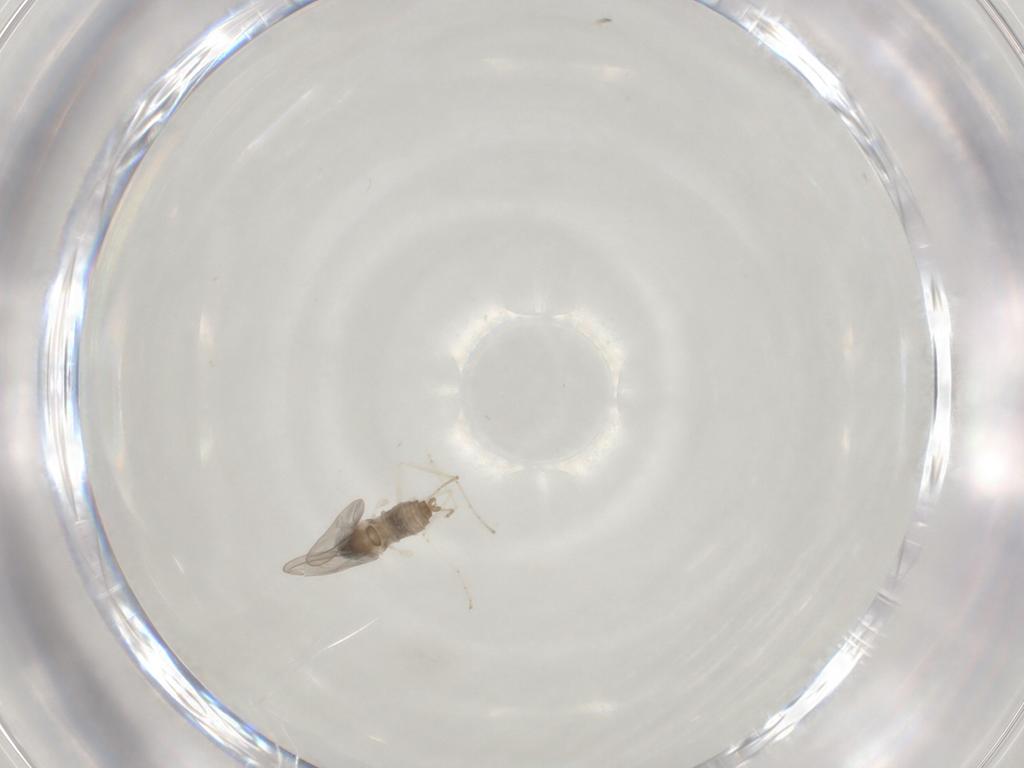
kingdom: Animalia
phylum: Arthropoda
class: Insecta
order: Diptera
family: Cecidomyiidae
